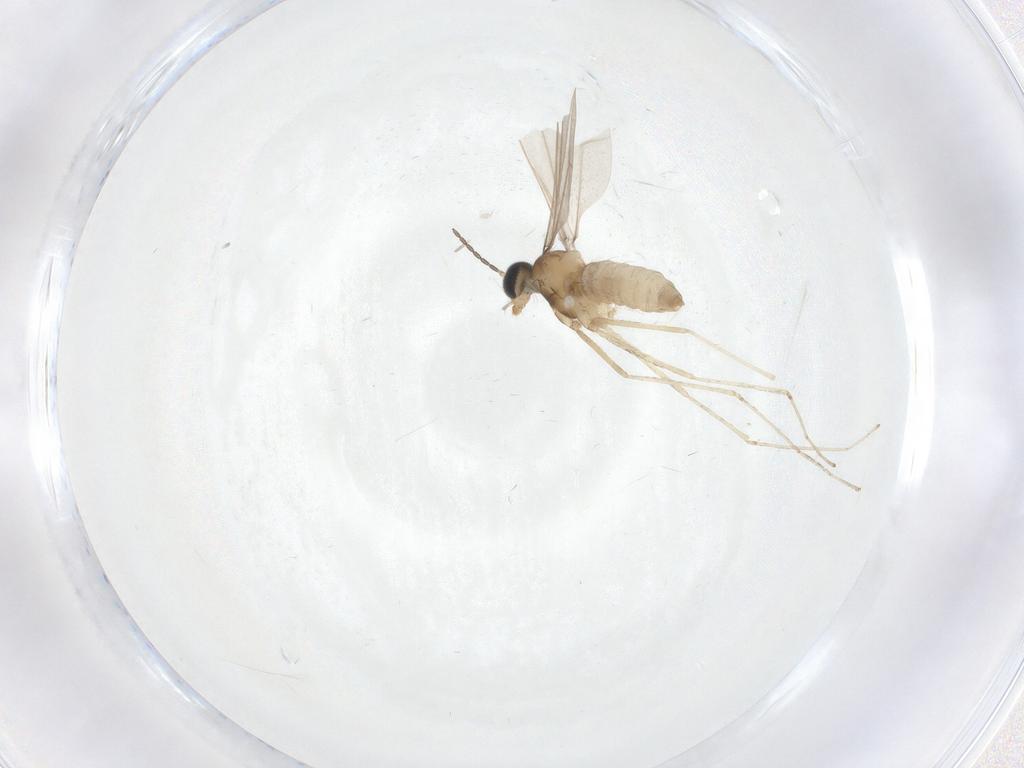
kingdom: Animalia
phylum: Arthropoda
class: Insecta
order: Diptera
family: Cecidomyiidae
